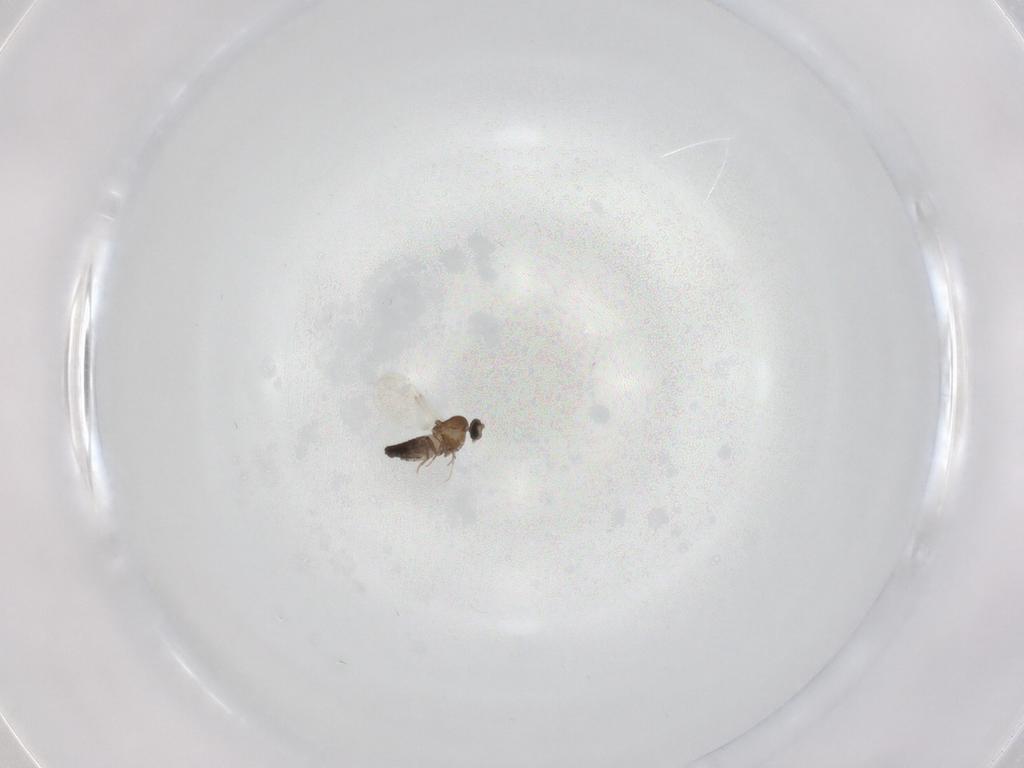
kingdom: Animalia
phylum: Arthropoda
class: Insecta
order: Diptera
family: Ceratopogonidae
